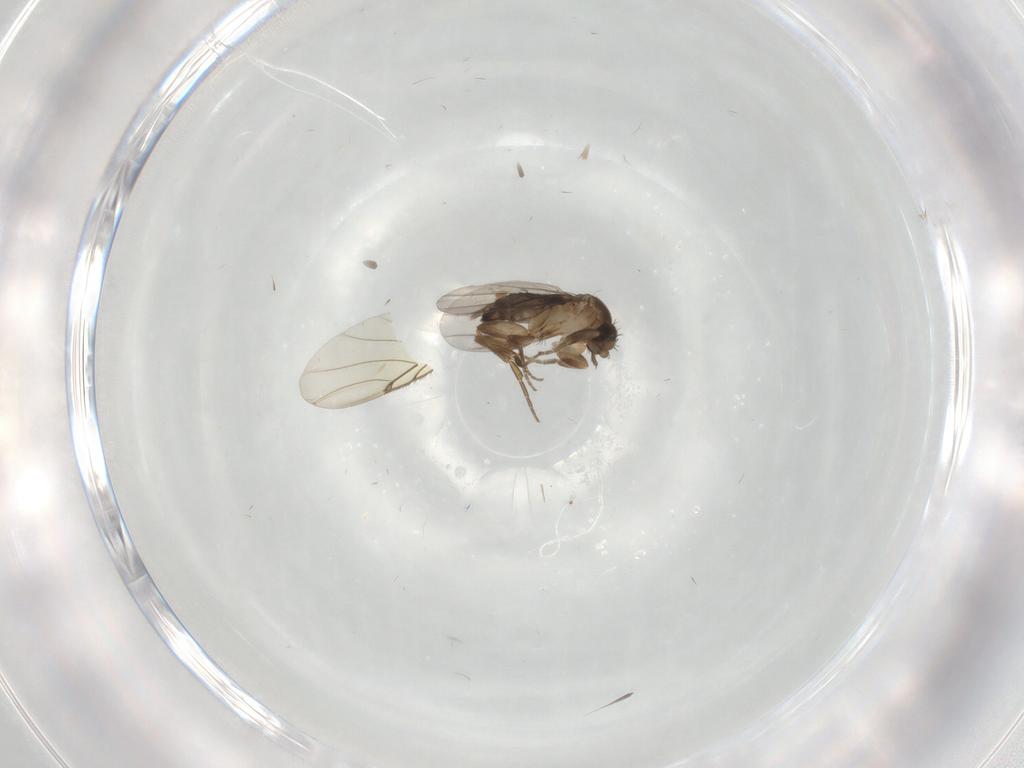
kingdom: Animalia
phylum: Arthropoda
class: Insecta
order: Diptera
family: Phoridae
